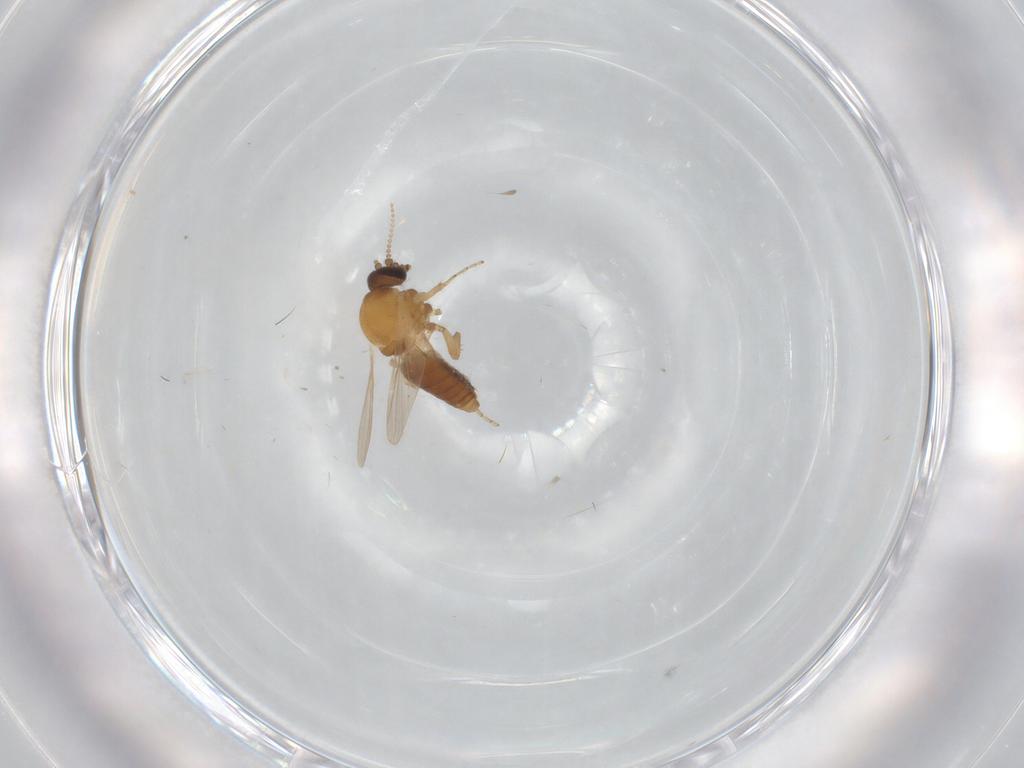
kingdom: Animalia
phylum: Arthropoda
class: Insecta
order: Diptera
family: Ceratopogonidae
